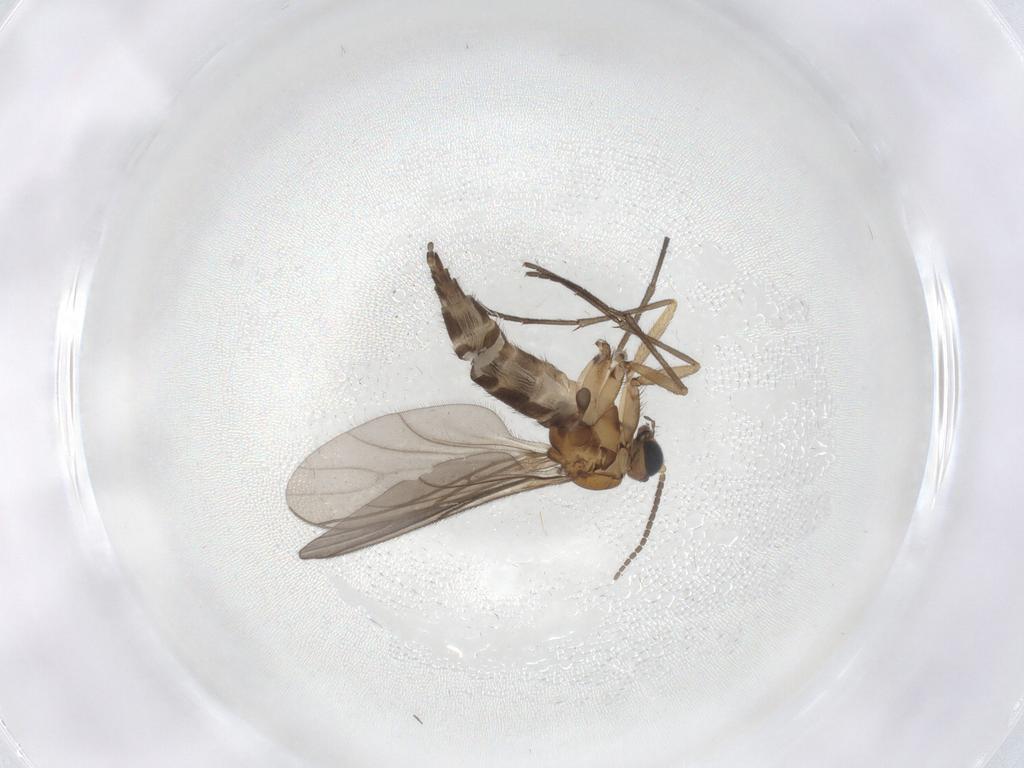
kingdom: Animalia
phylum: Arthropoda
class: Insecta
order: Diptera
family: Sciaridae
